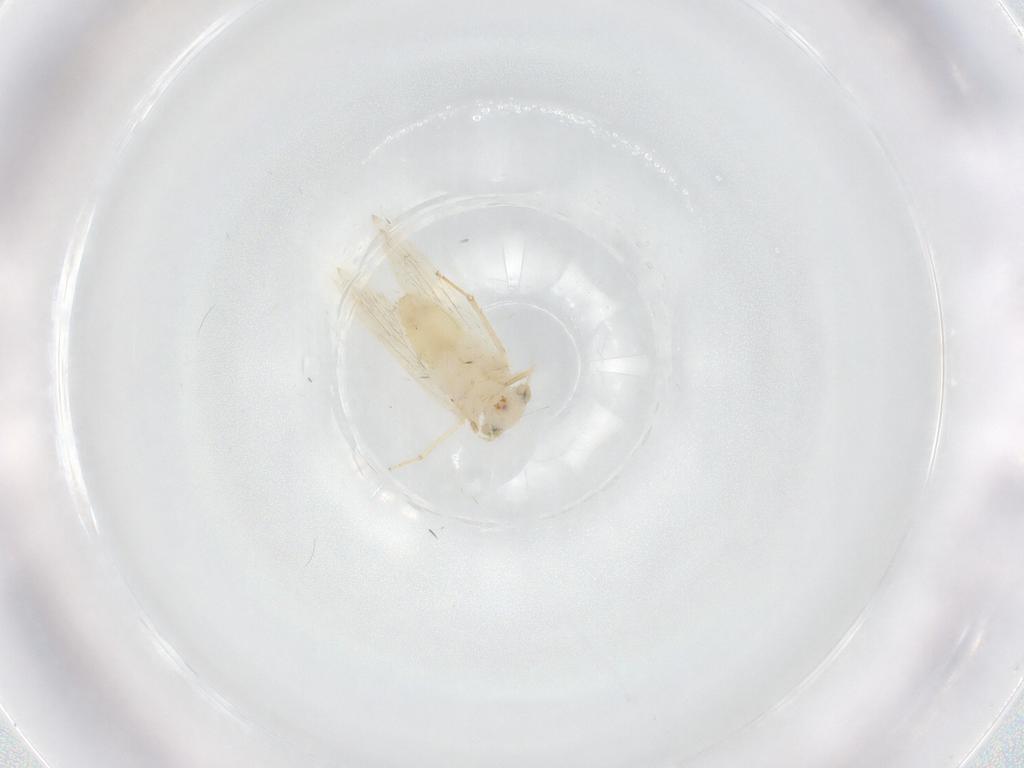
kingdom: Animalia
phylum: Arthropoda
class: Insecta
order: Psocodea
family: Lepidopsocidae
